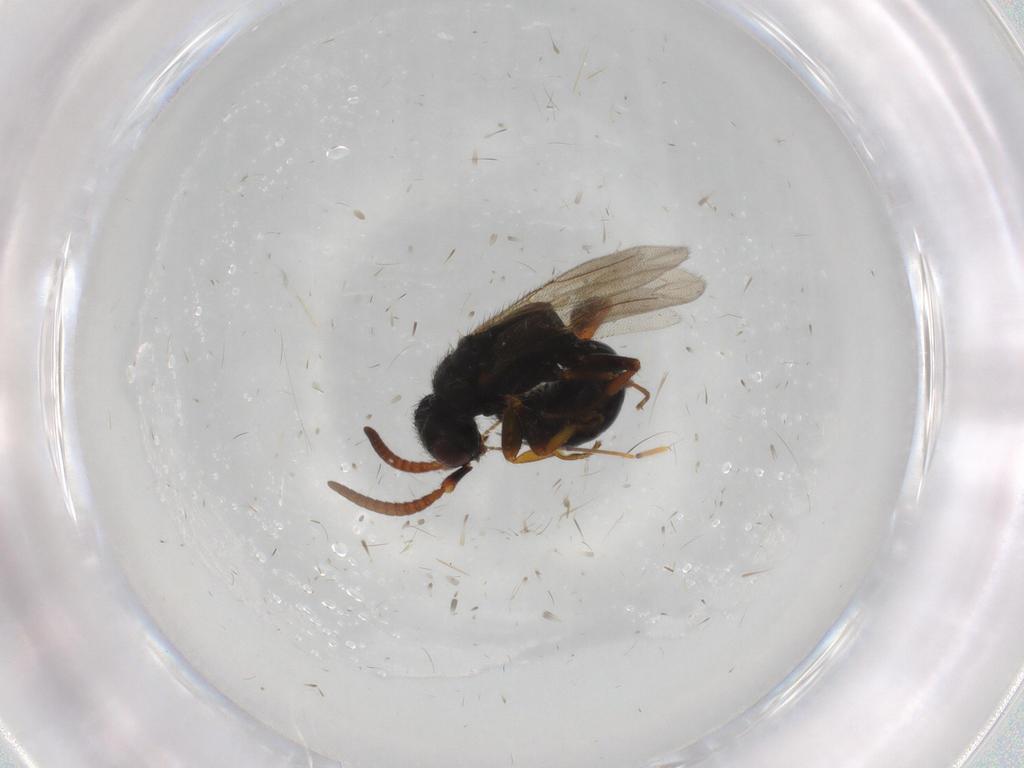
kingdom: Animalia
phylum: Arthropoda
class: Insecta
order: Hymenoptera
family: Bethylidae
